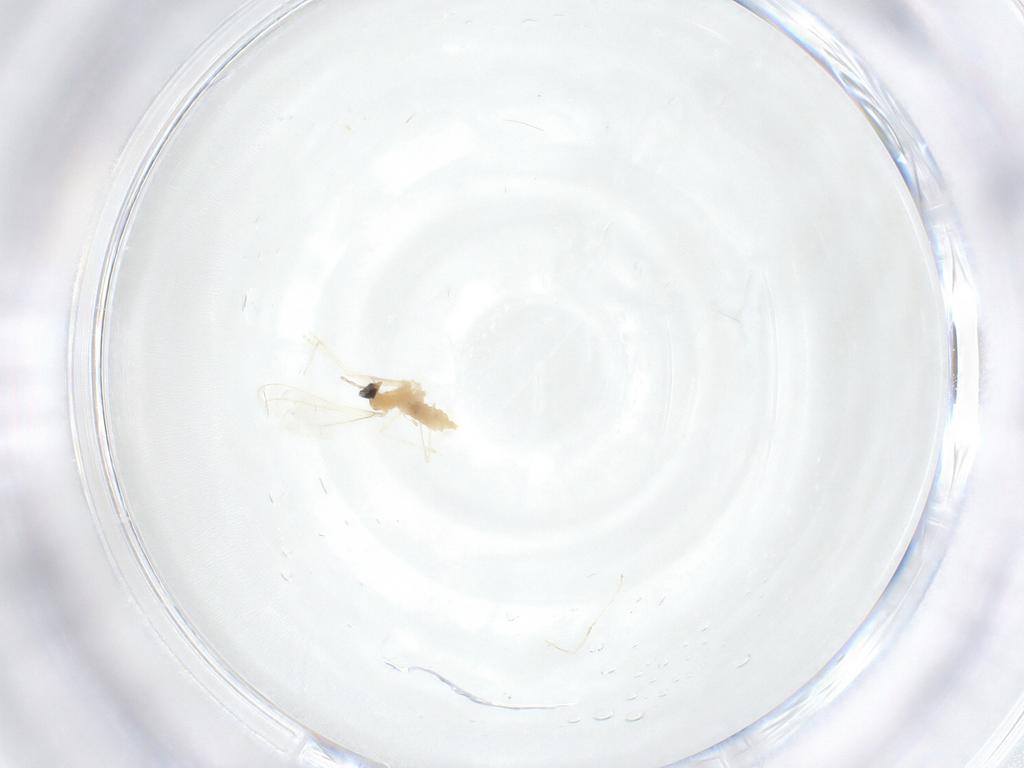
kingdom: Animalia
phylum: Arthropoda
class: Insecta
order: Diptera
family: Cecidomyiidae
